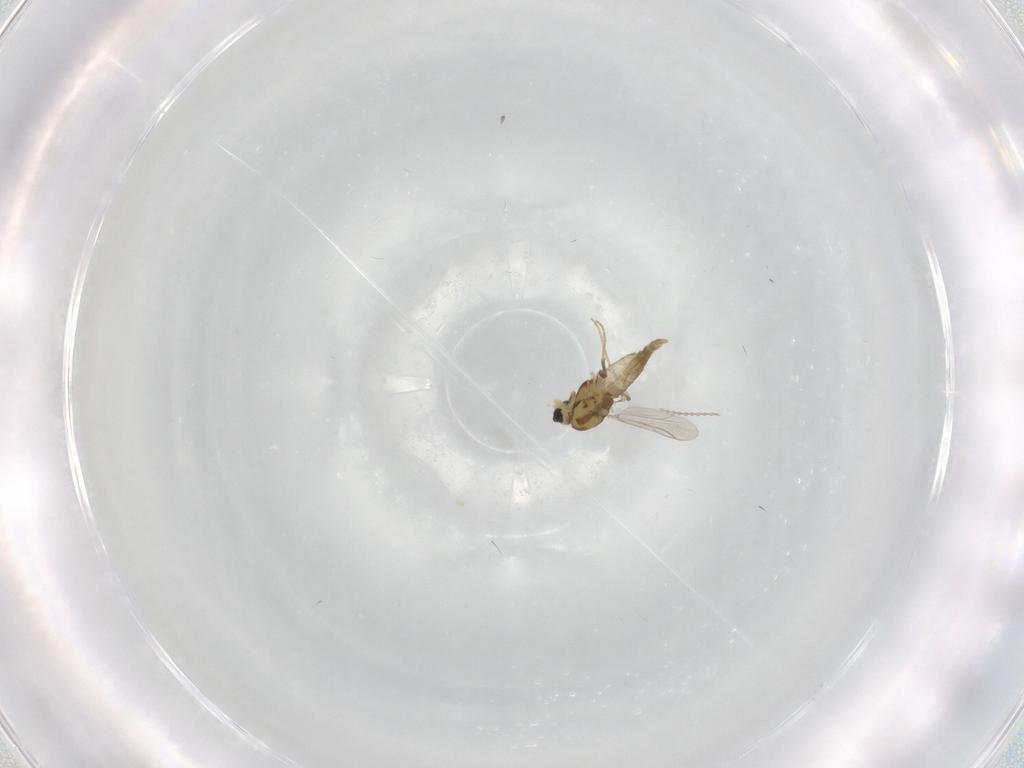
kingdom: Animalia
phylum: Arthropoda
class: Insecta
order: Diptera
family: Cecidomyiidae
